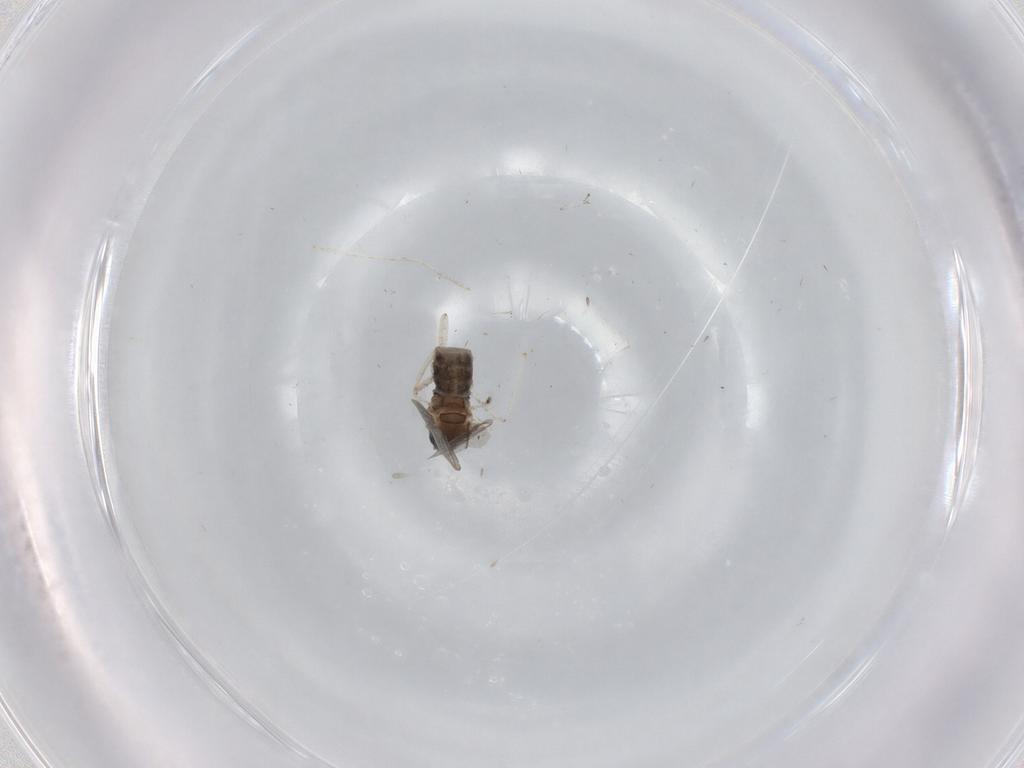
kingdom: Animalia
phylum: Arthropoda
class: Insecta
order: Diptera
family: Cecidomyiidae
